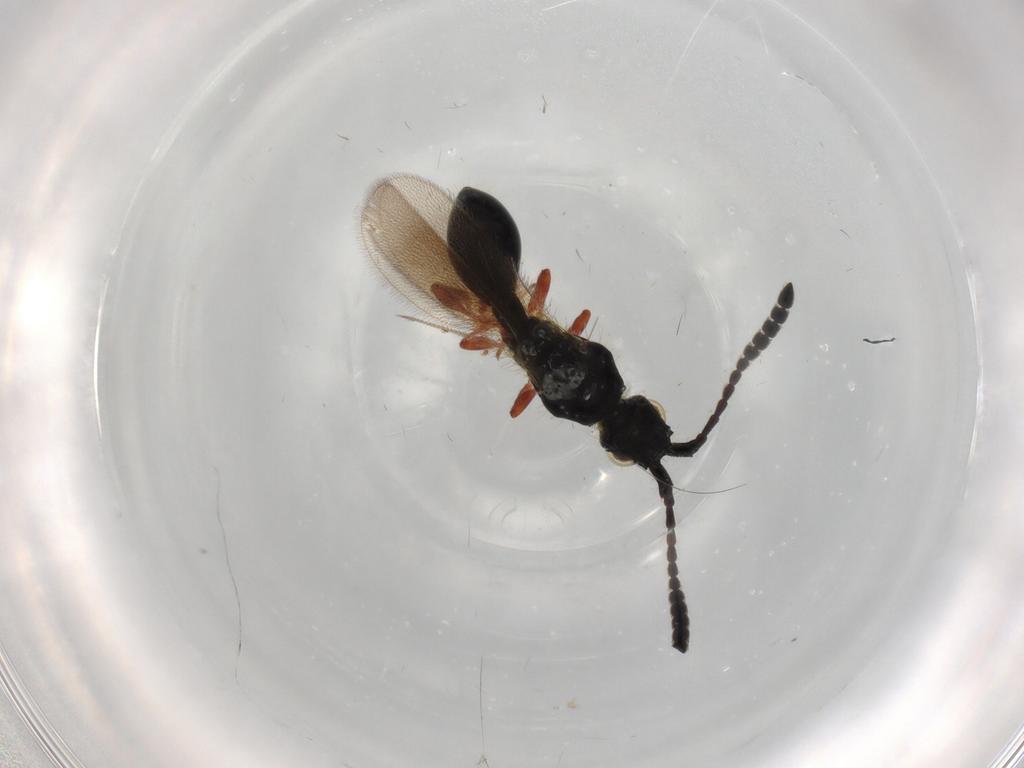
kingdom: Animalia
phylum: Arthropoda
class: Insecta
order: Hymenoptera
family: Diapriidae
